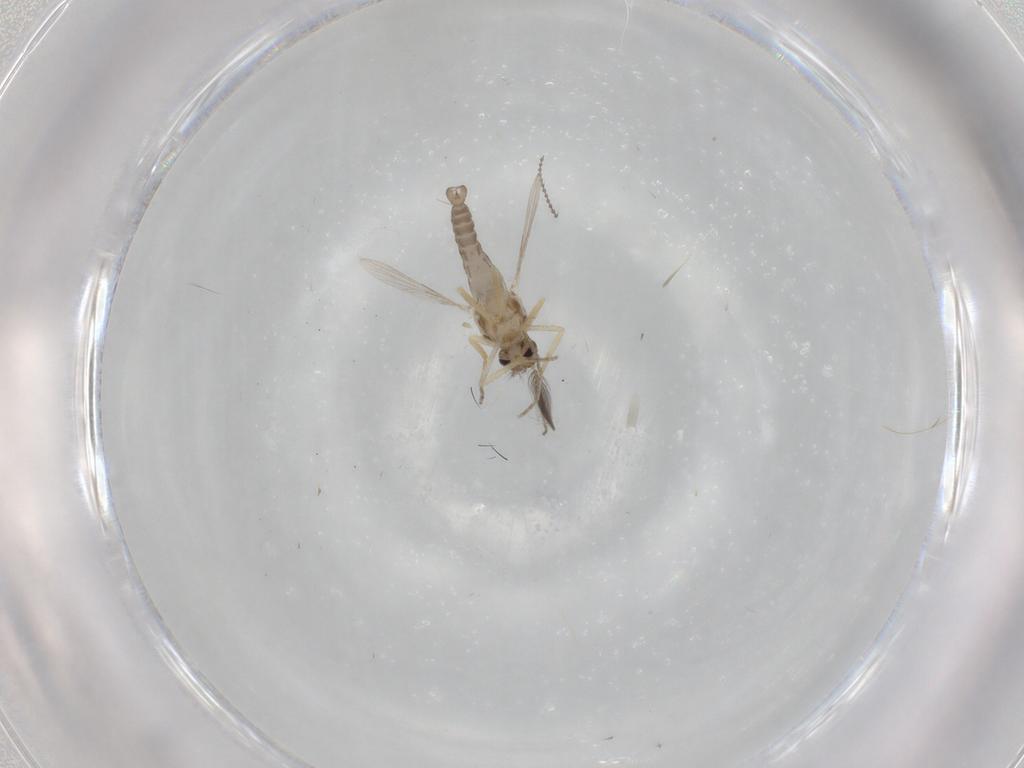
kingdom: Animalia
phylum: Arthropoda
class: Insecta
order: Diptera
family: Ceratopogonidae
